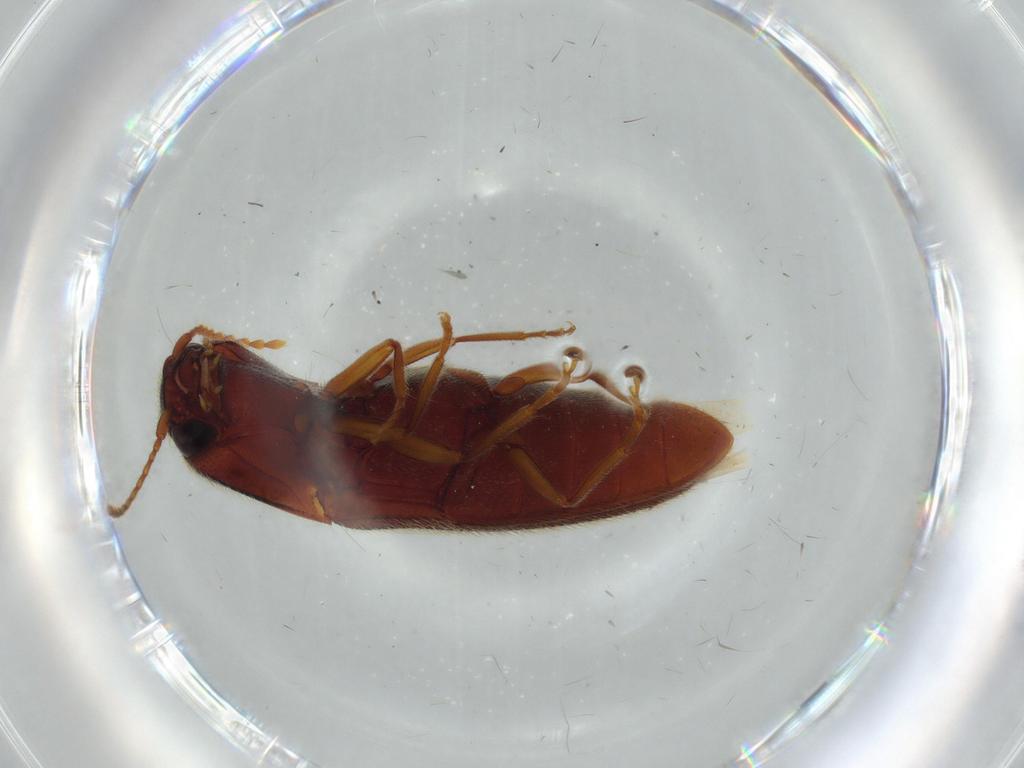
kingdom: Animalia
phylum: Arthropoda
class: Insecta
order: Coleoptera
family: Elateridae
